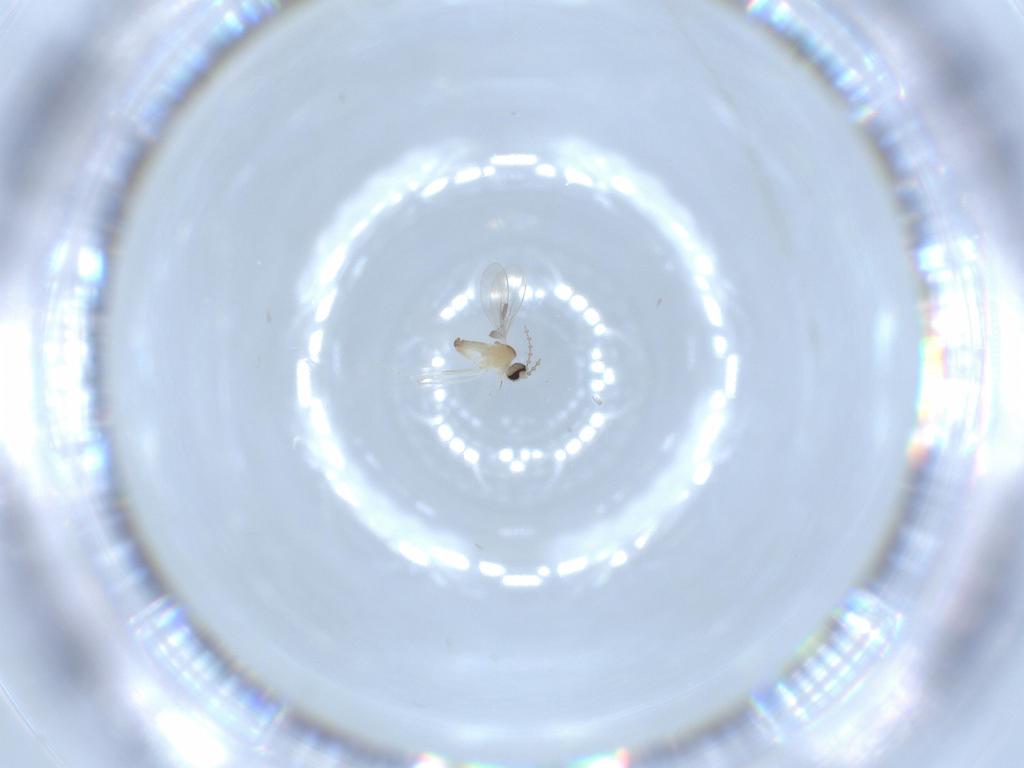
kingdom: Animalia
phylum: Arthropoda
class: Insecta
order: Diptera
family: Cecidomyiidae
